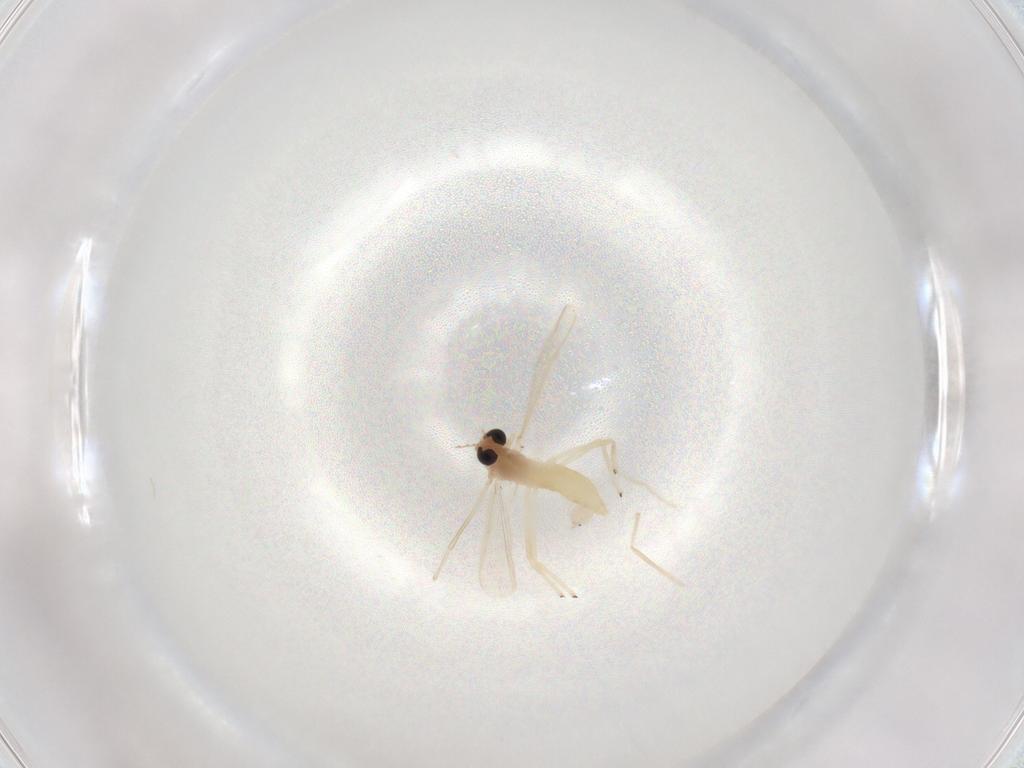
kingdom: Animalia
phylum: Arthropoda
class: Insecta
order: Diptera
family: Chironomidae
